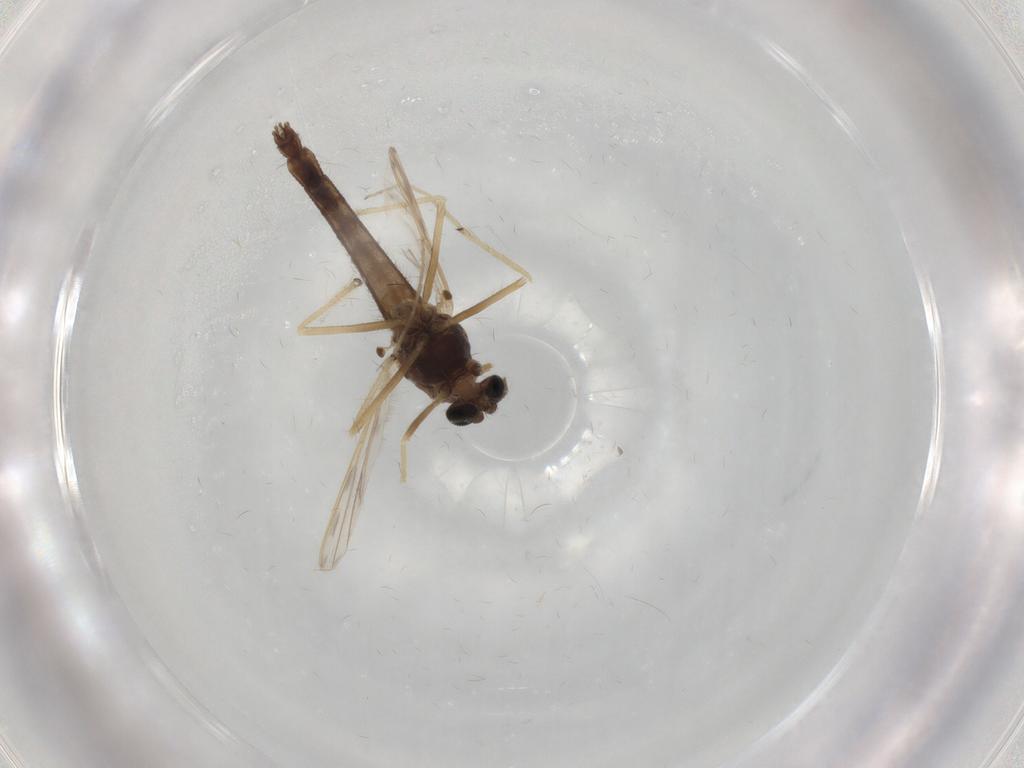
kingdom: Animalia
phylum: Arthropoda
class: Insecta
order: Diptera
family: Chironomidae
